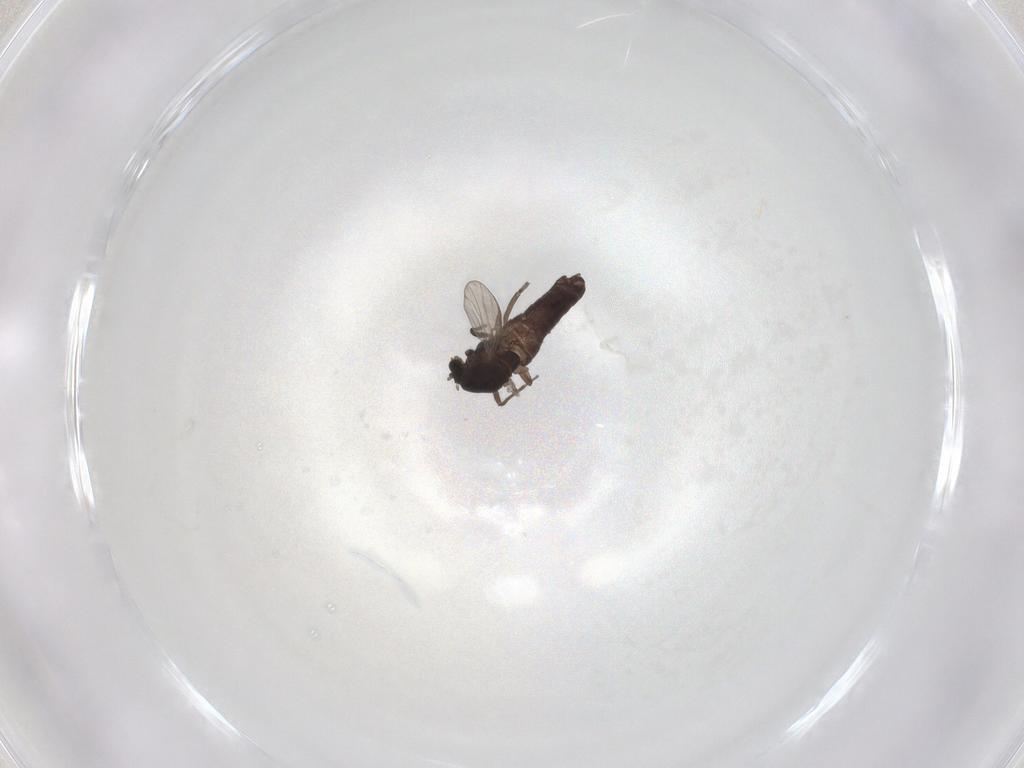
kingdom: Animalia
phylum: Arthropoda
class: Insecta
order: Diptera
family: Chironomidae
